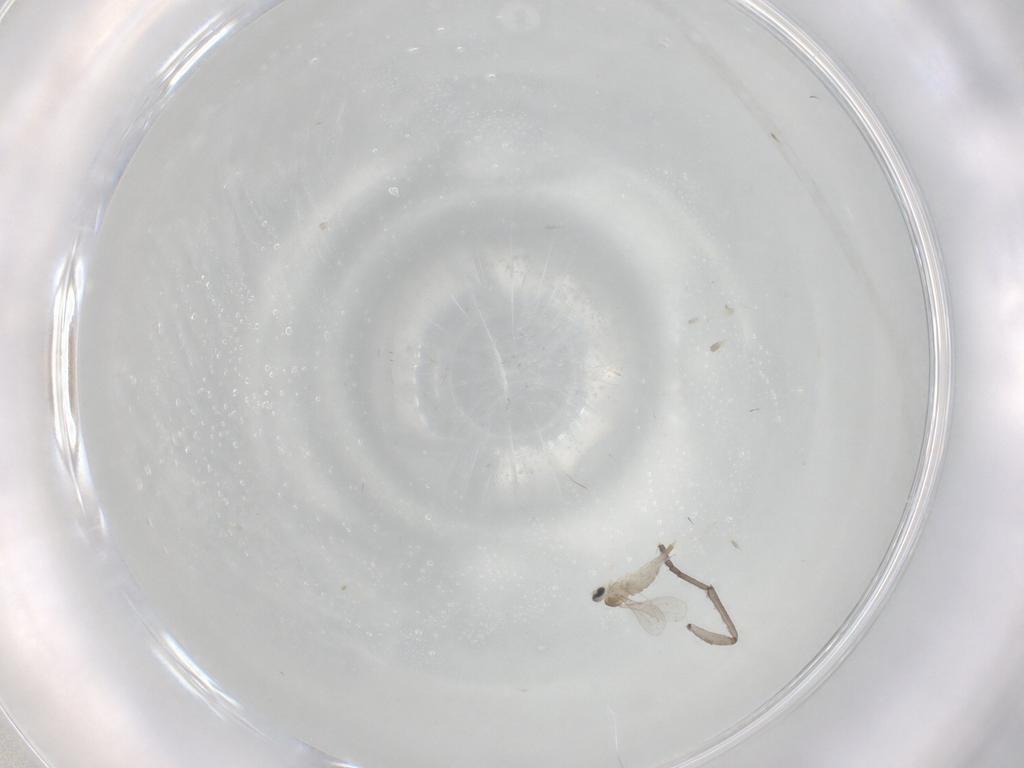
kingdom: Animalia
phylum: Arthropoda
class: Insecta
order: Diptera
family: Psychodidae
